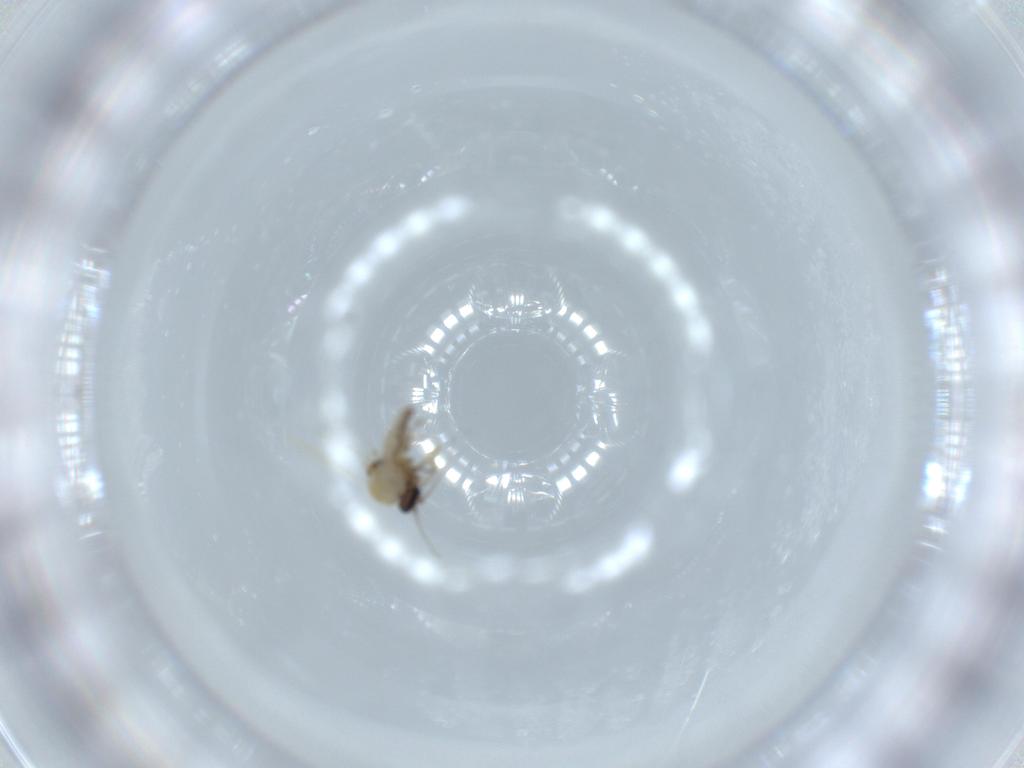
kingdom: Animalia
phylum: Arthropoda
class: Insecta
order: Diptera
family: Ceratopogonidae
